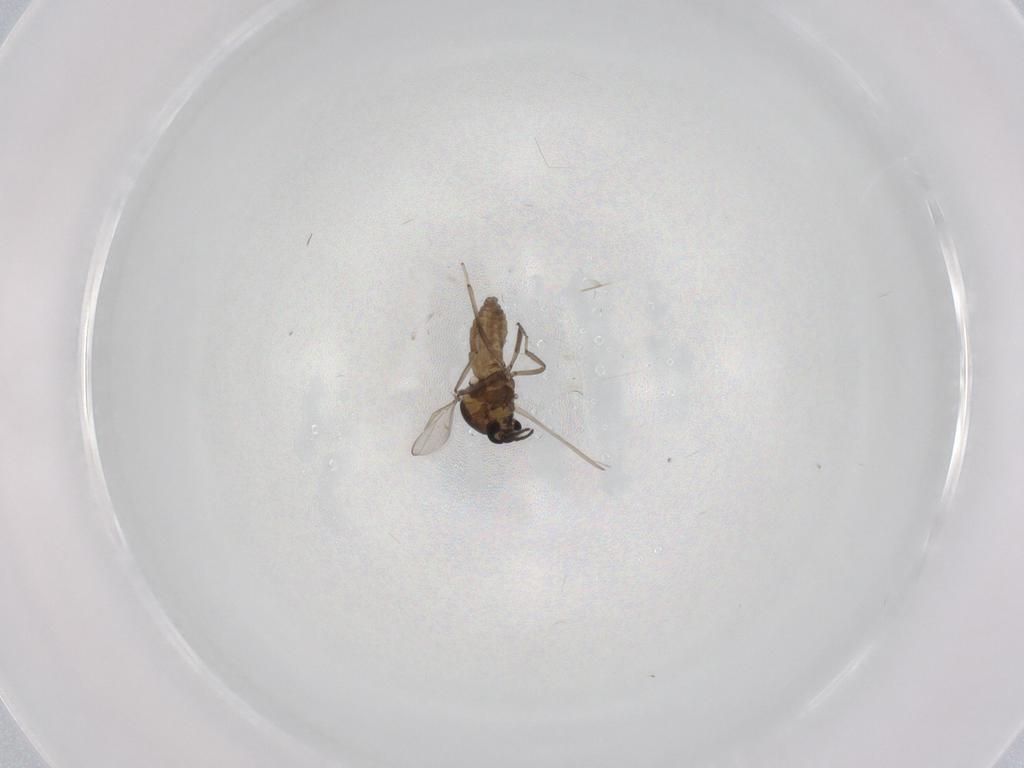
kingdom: Animalia
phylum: Arthropoda
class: Insecta
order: Diptera
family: Ceratopogonidae
